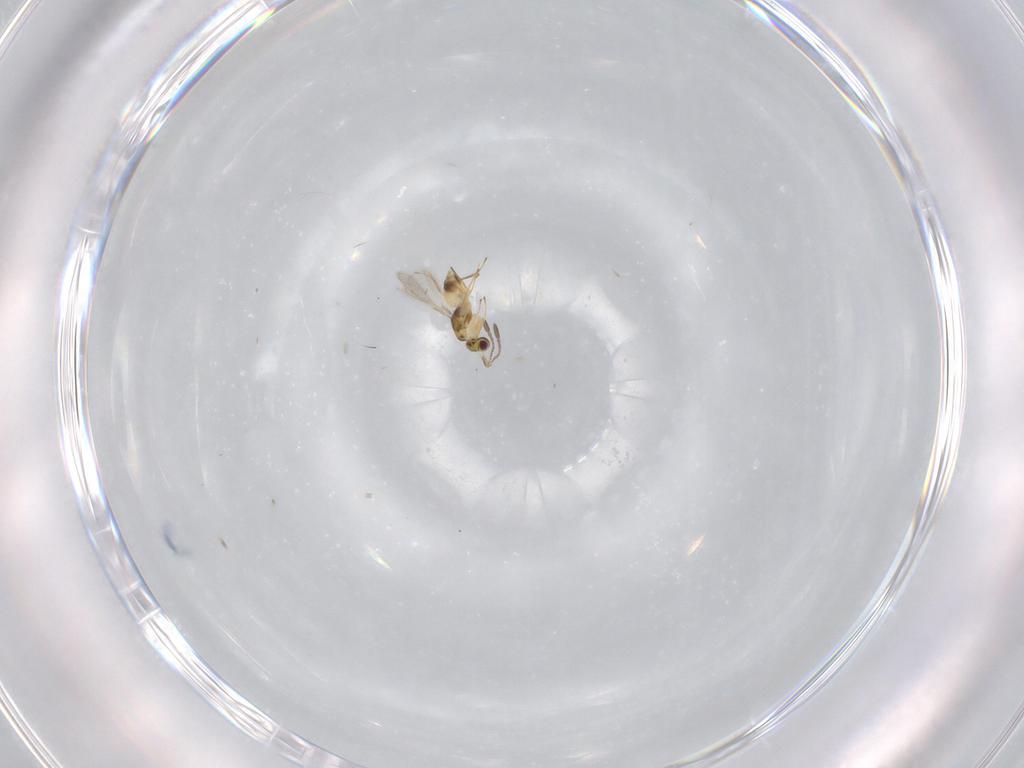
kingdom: Animalia
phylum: Arthropoda
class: Insecta
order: Hymenoptera
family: Mymaridae
